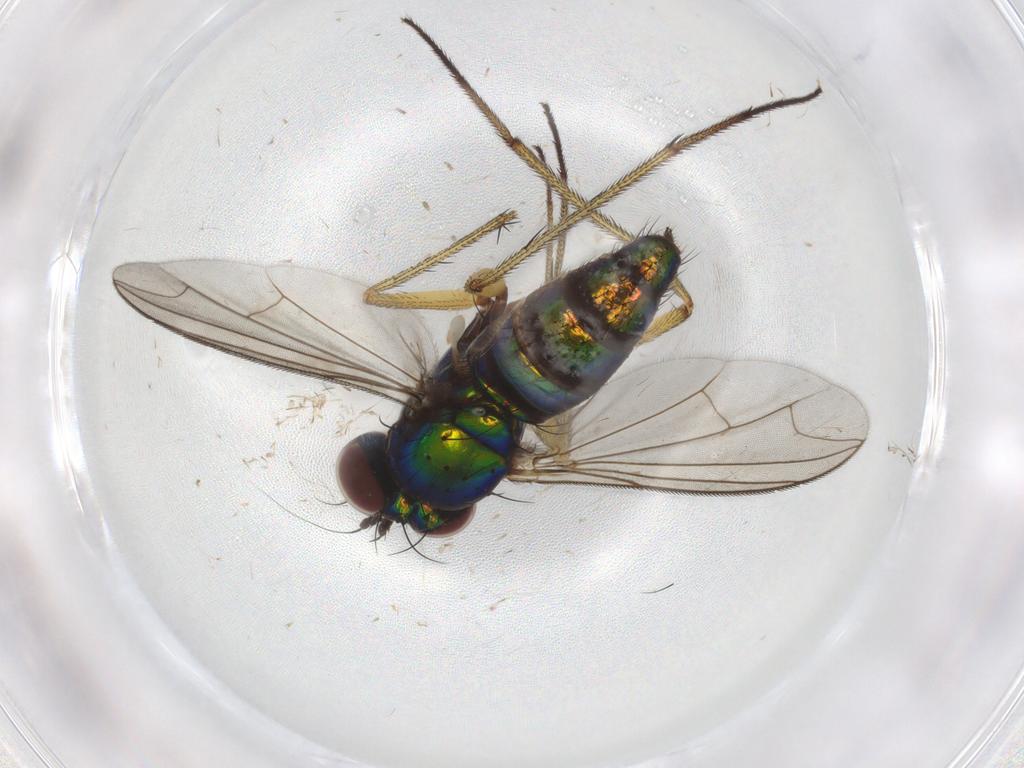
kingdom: Animalia
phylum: Arthropoda
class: Insecta
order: Diptera
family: Dolichopodidae
